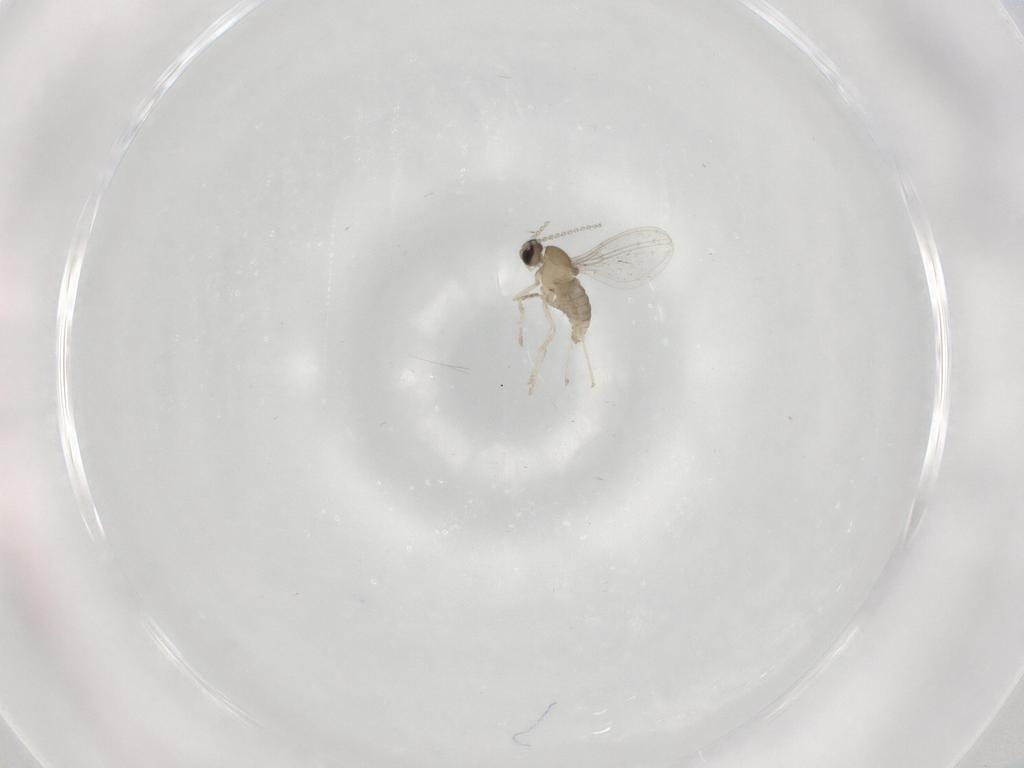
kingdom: Animalia
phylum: Arthropoda
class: Insecta
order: Diptera
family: Cecidomyiidae
